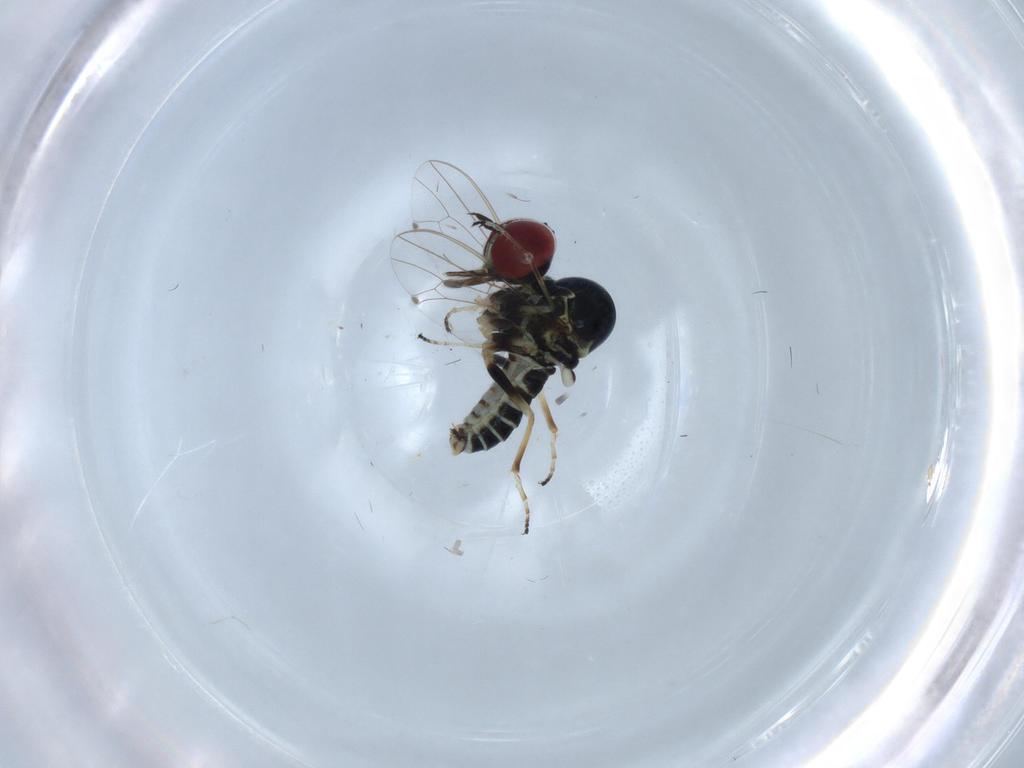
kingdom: Animalia
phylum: Arthropoda
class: Insecta
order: Diptera
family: Bombyliidae
